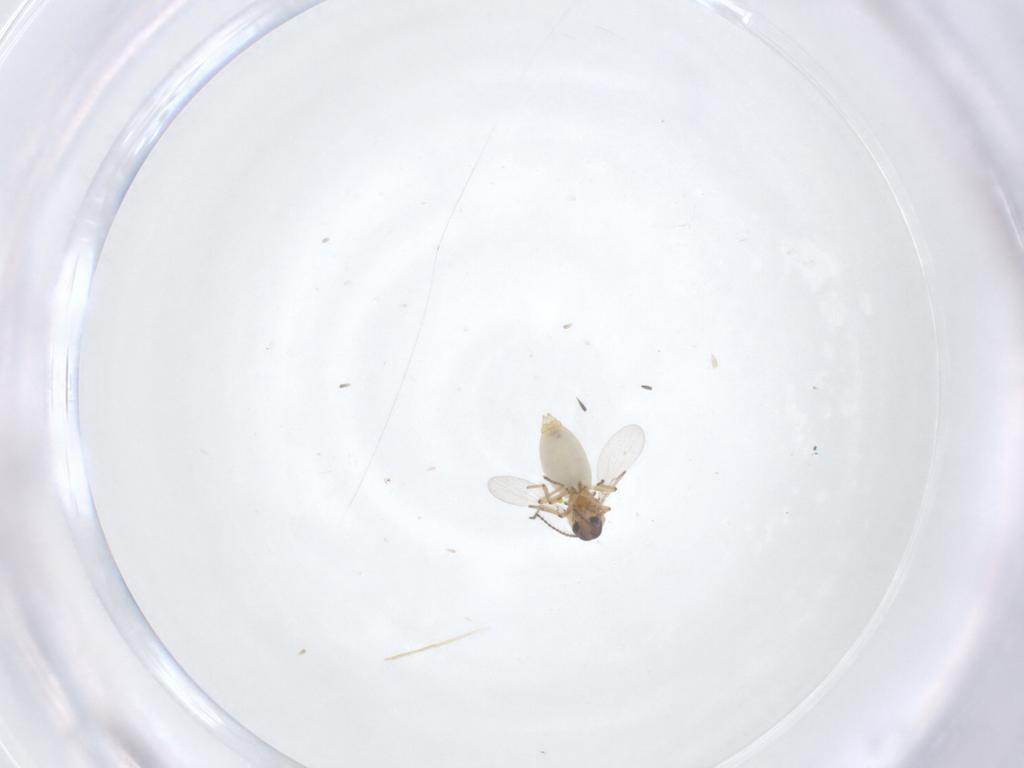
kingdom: Animalia
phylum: Arthropoda
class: Insecta
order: Diptera
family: Ceratopogonidae
